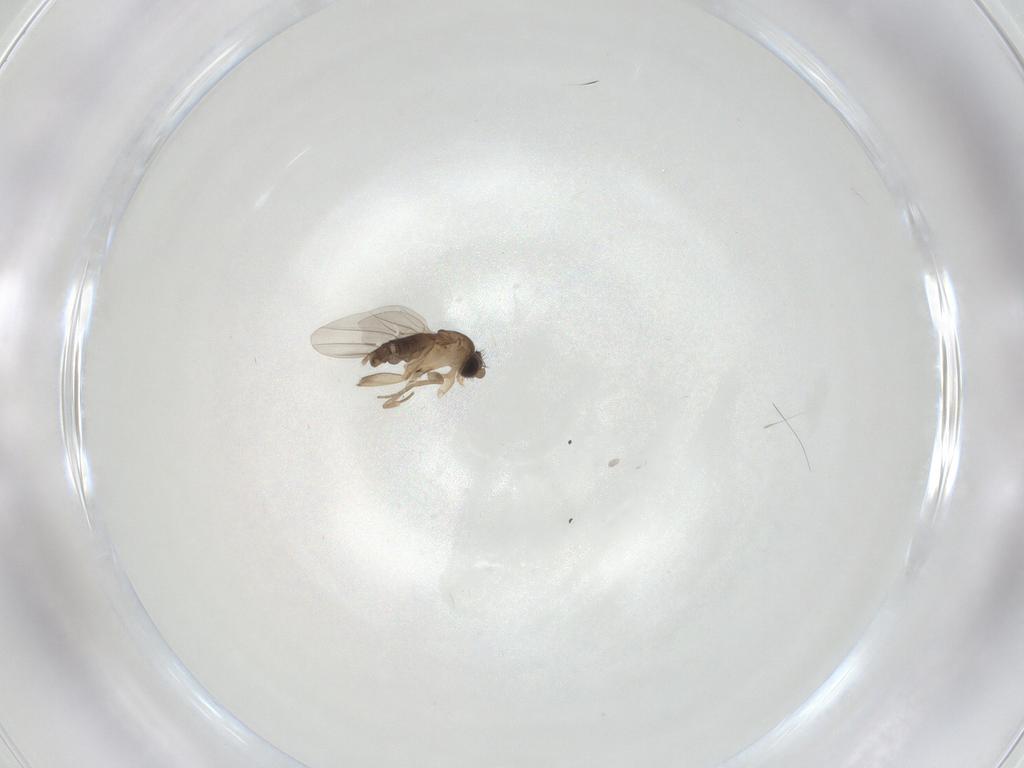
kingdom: Animalia
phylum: Arthropoda
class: Insecta
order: Diptera
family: Phoridae
